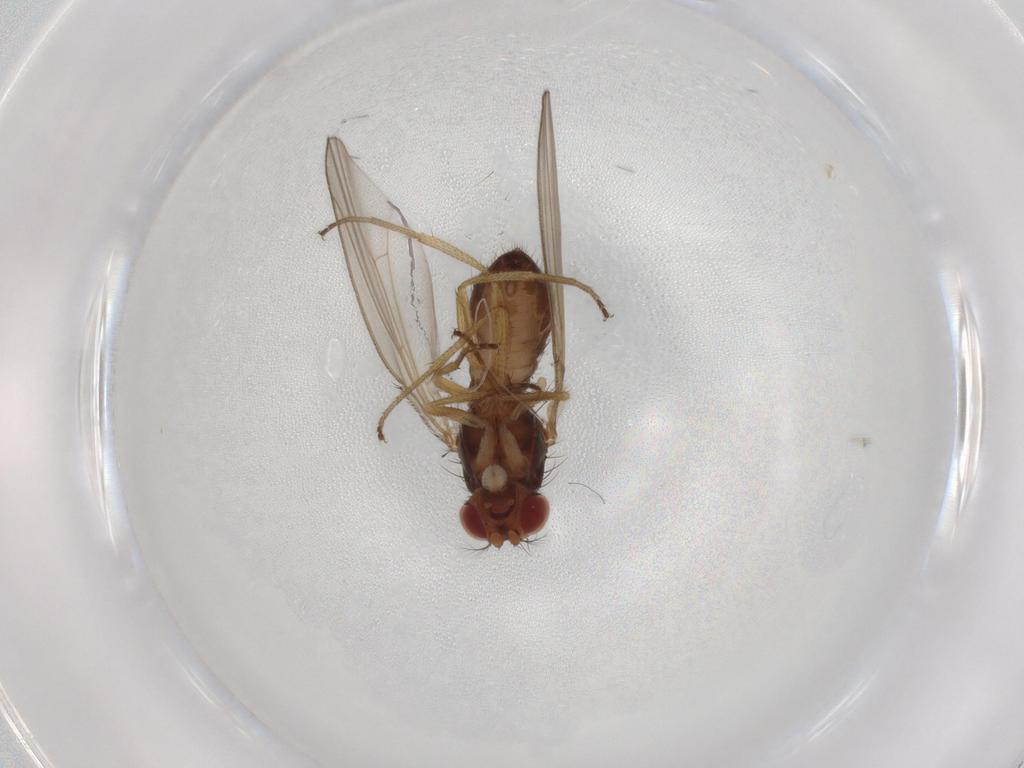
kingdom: Animalia
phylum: Arthropoda
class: Insecta
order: Diptera
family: Drosophilidae
